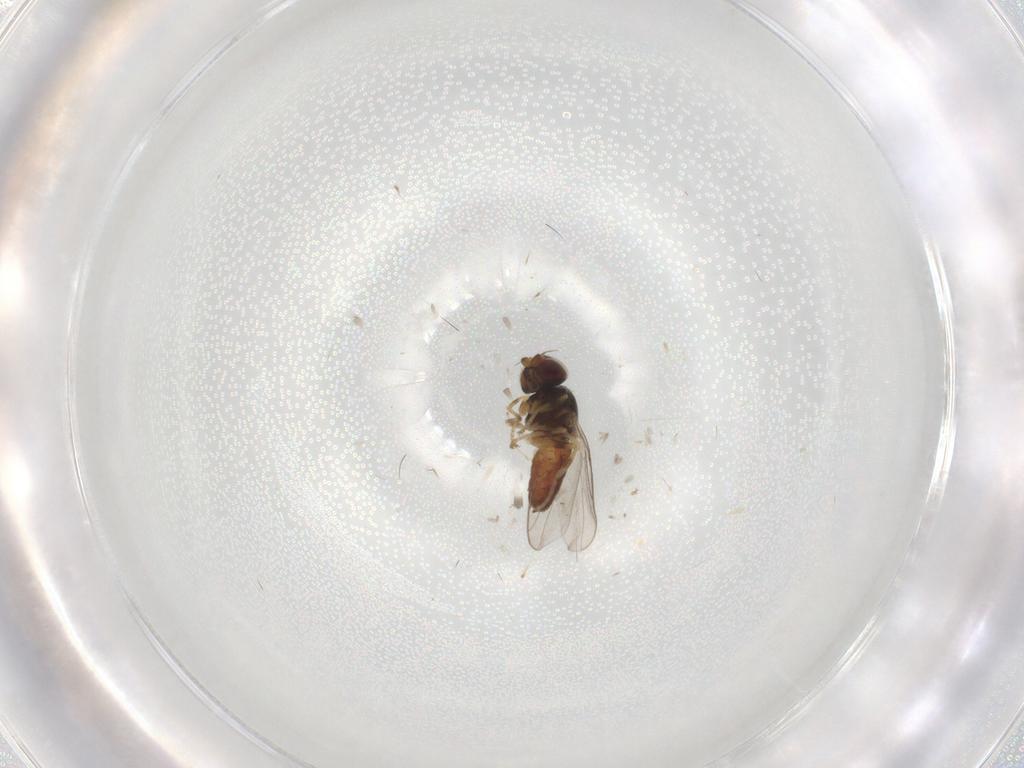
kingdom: Animalia
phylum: Arthropoda
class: Insecta
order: Diptera
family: Chloropidae
